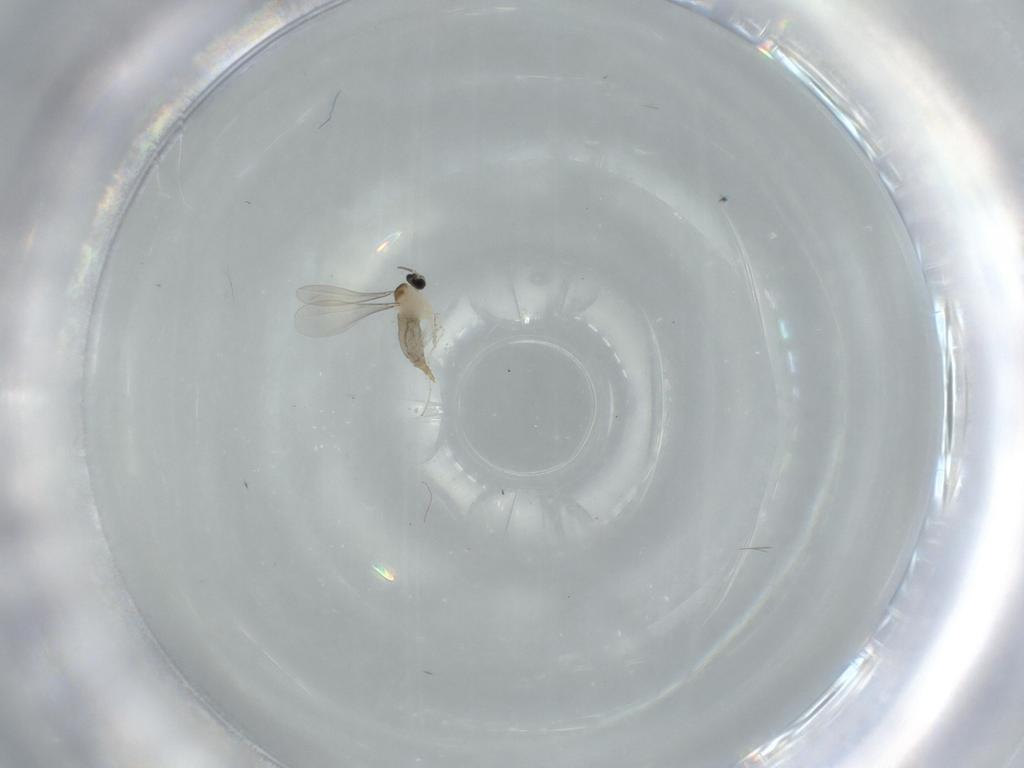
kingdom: Animalia
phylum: Arthropoda
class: Insecta
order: Diptera
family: Cecidomyiidae
